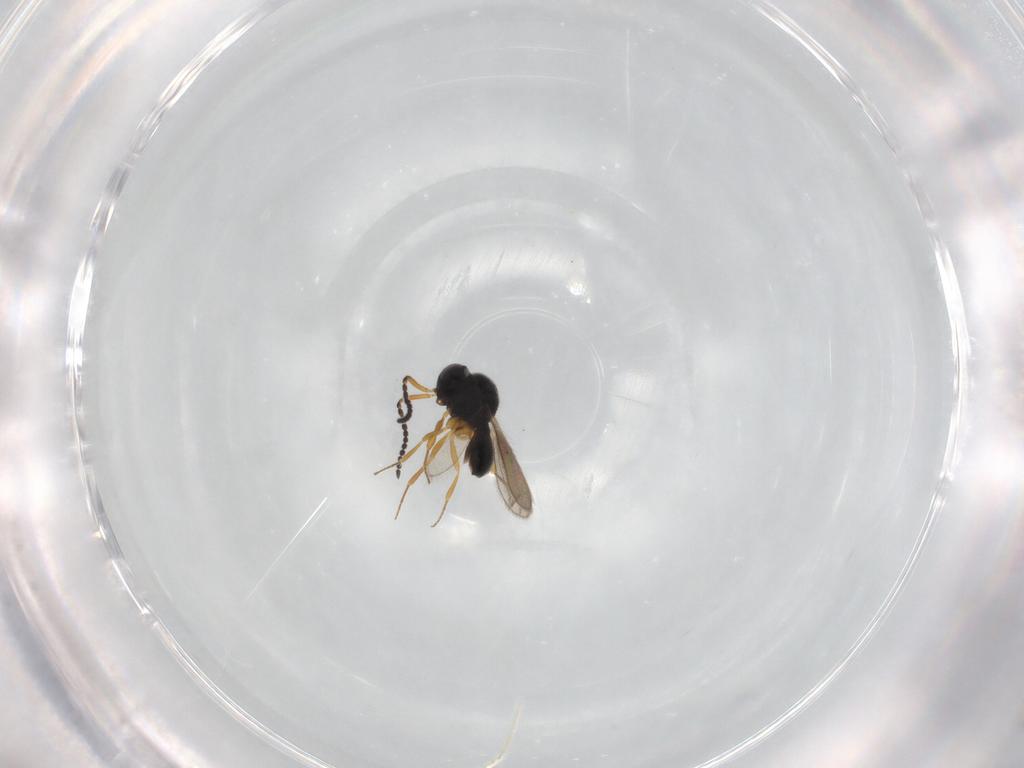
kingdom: Animalia
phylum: Arthropoda
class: Insecta
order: Hymenoptera
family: Scelionidae
